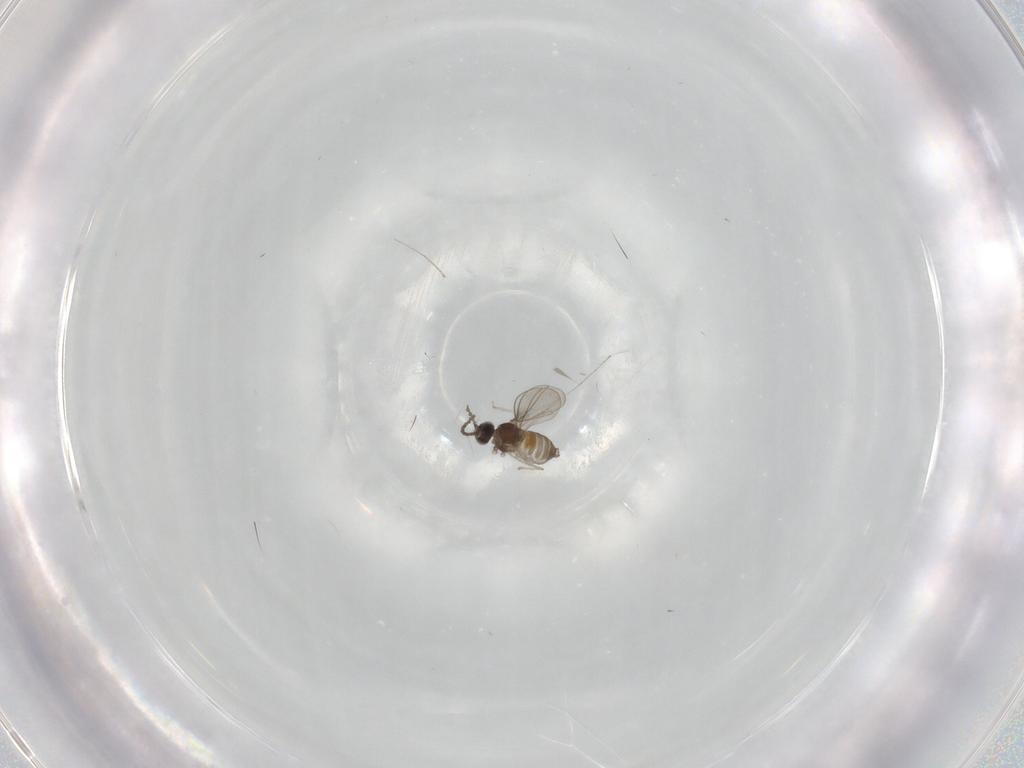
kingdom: Animalia
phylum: Arthropoda
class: Insecta
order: Diptera
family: Cecidomyiidae
